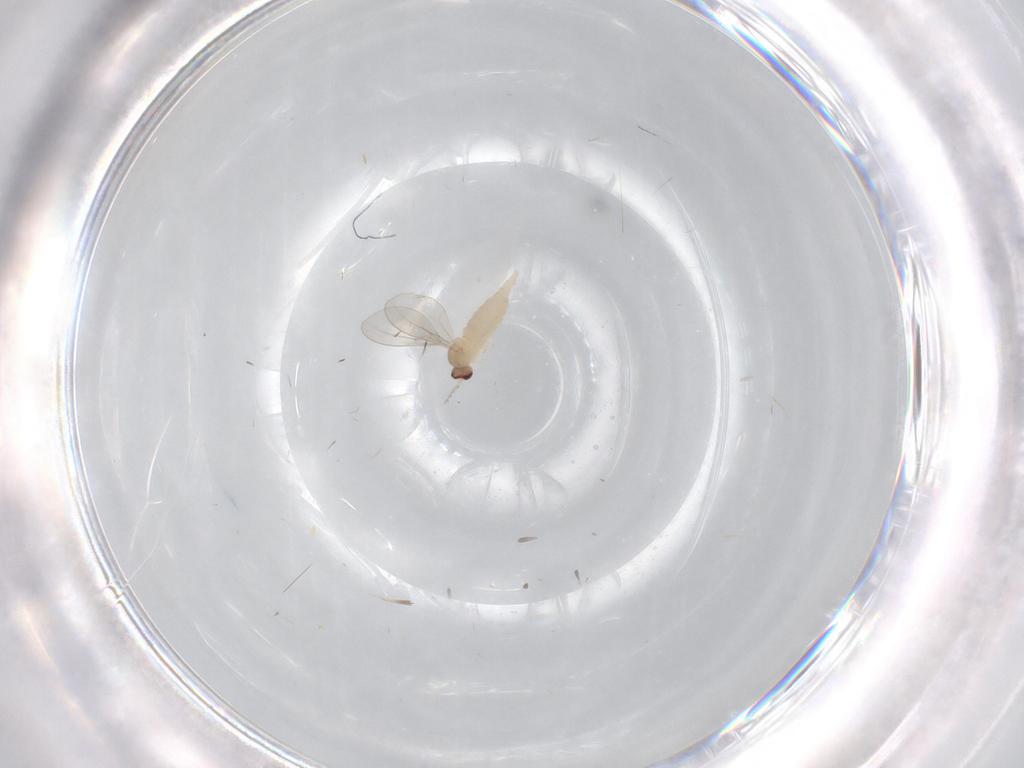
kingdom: Animalia
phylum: Arthropoda
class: Insecta
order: Diptera
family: Cecidomyiidae
